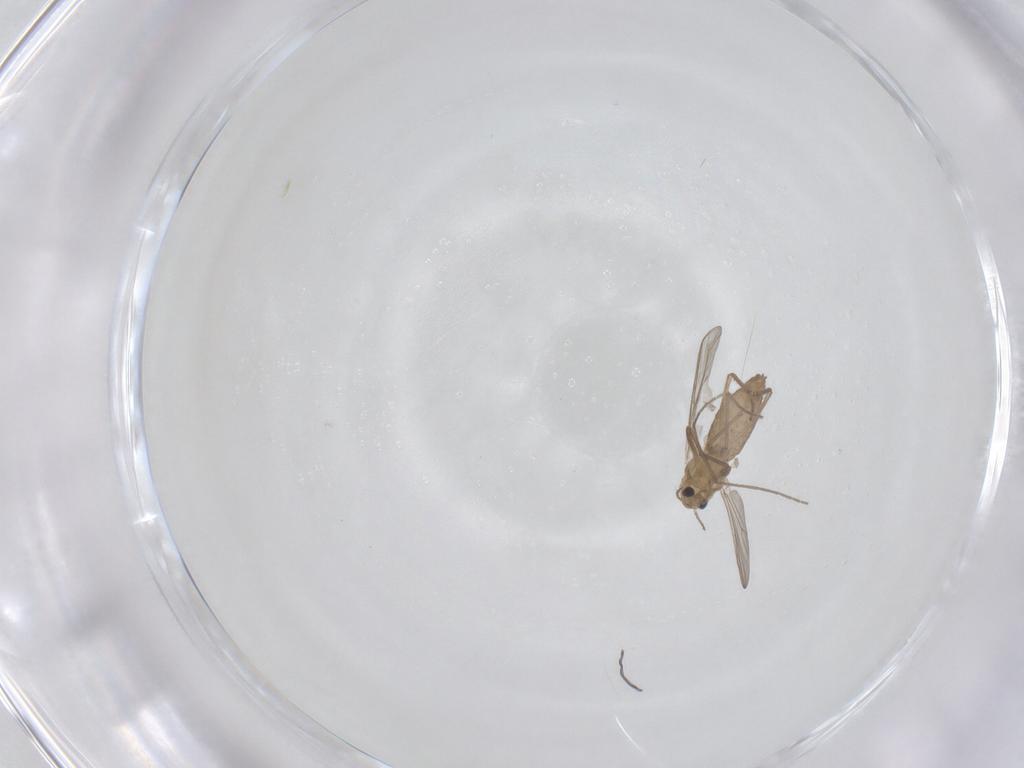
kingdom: Animalia
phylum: Arthropoda
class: Insecta
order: Diptera
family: Chironomidae
